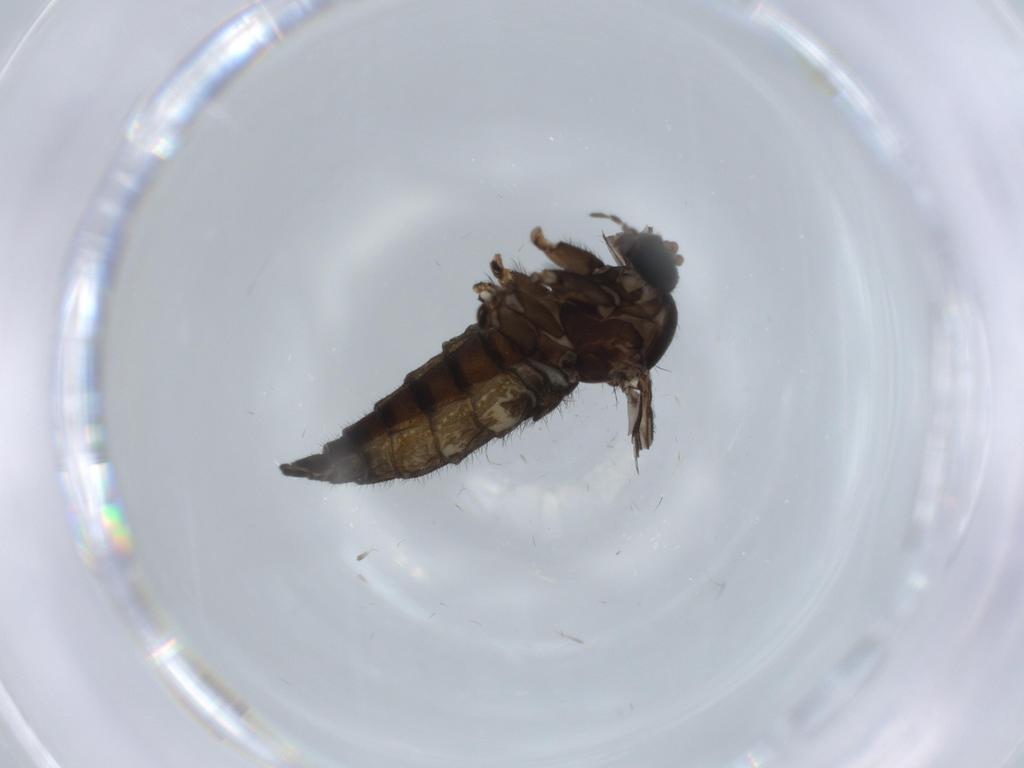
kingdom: Animalia
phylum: Arthropoda
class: Insecta
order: Diptera
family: Sciaridae
